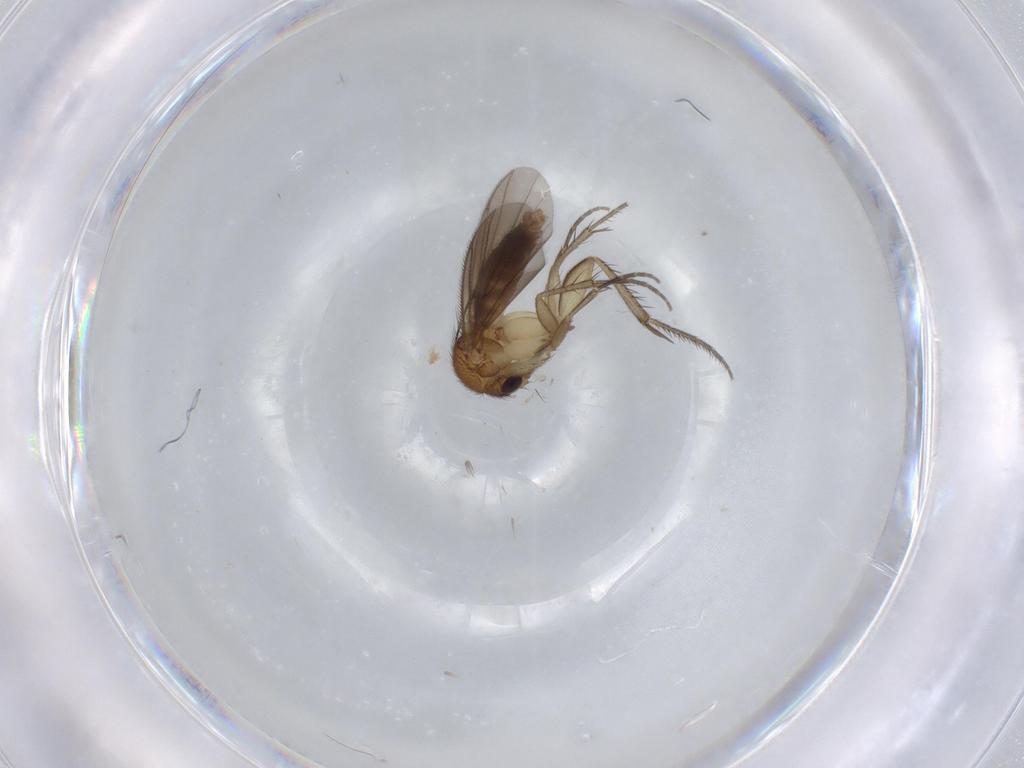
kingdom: Animalia
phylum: Arthropoda
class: Insecta
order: Diptera
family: Mycetophilidae
